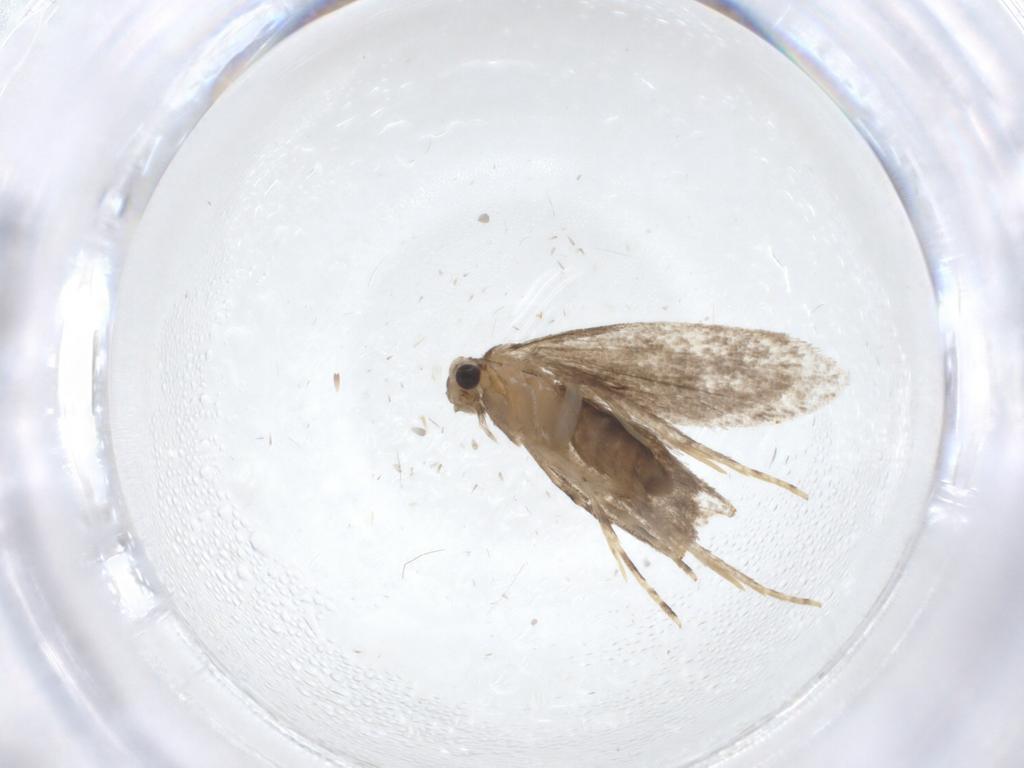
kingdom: Animalia
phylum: Arthropoda
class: Insecta
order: Lepidoptera
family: Tineidae
